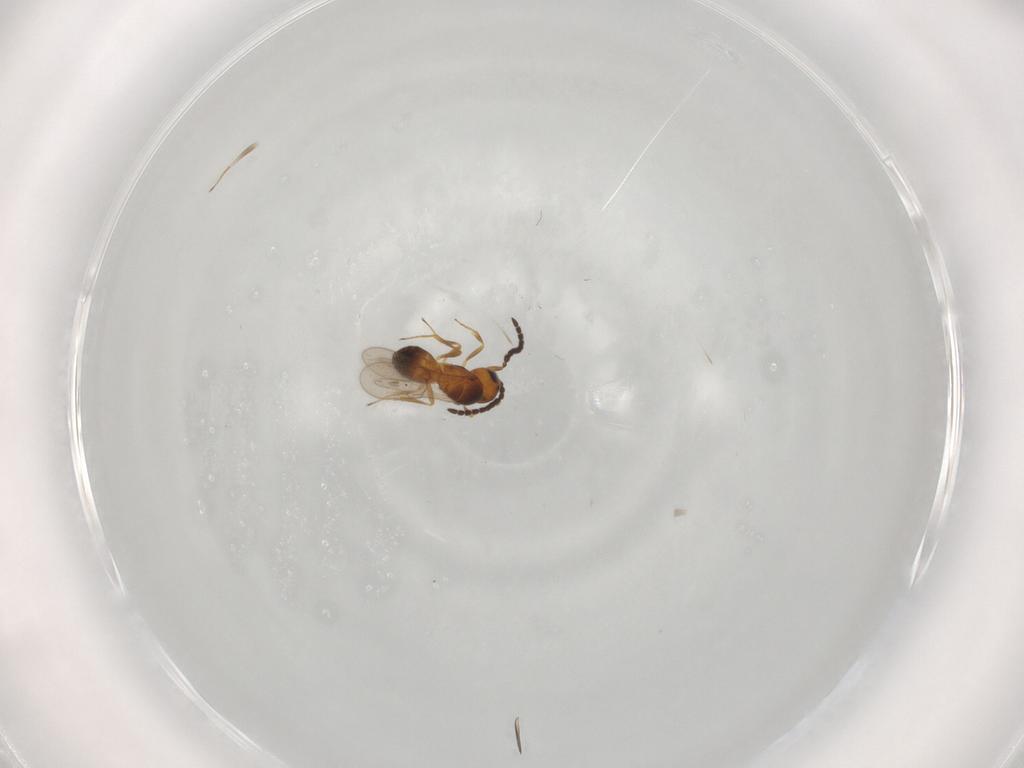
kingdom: Animalia
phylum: Arthropoda
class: Insecta
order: Hymenoptera
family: Scelionidae
